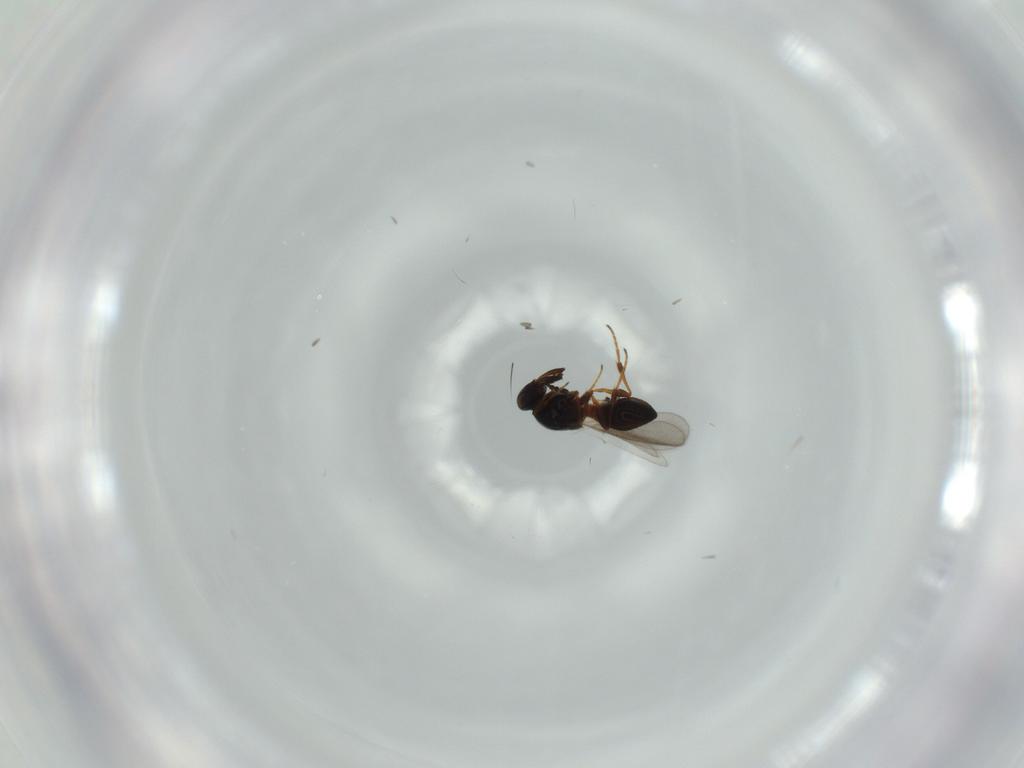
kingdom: Animalia
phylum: Arthropoda
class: Insecta
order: Hymenoptera
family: Platygastridae
